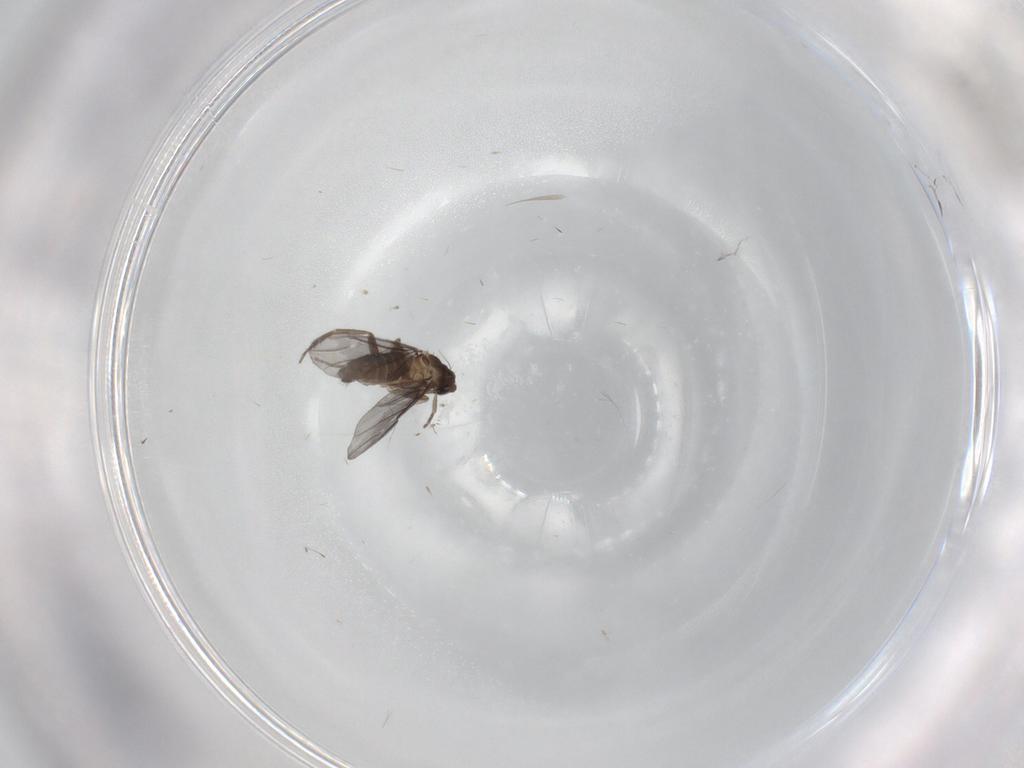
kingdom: Animalia
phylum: Arthropoda
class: Insecta
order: Diptera
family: Phoridae
